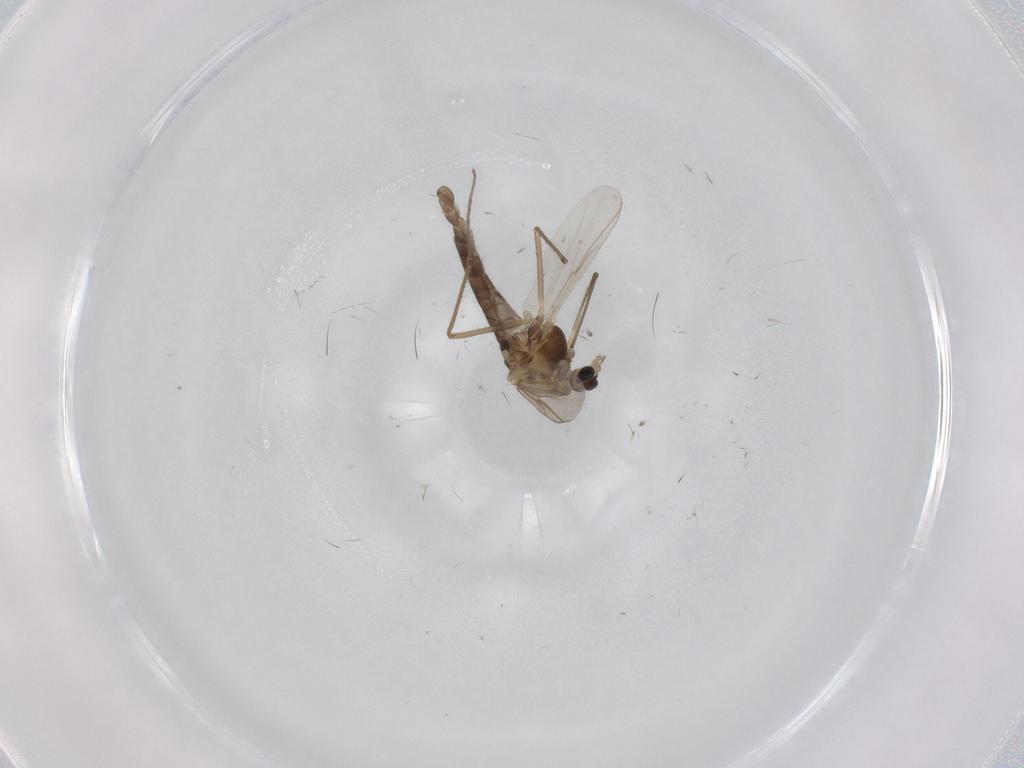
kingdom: Animalia
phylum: Arthropoda
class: Insecta
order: Diptera
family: Chironomidae
